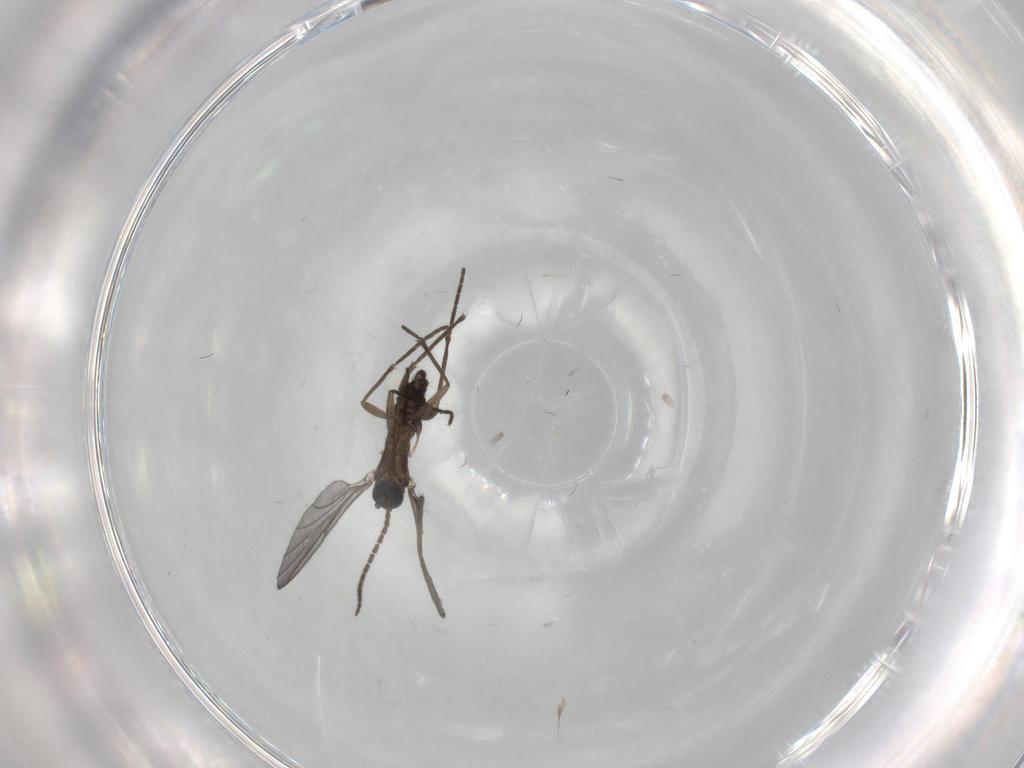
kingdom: Animalia
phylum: Arthropoda
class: Insecta
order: Diptera
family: Sciaridae
